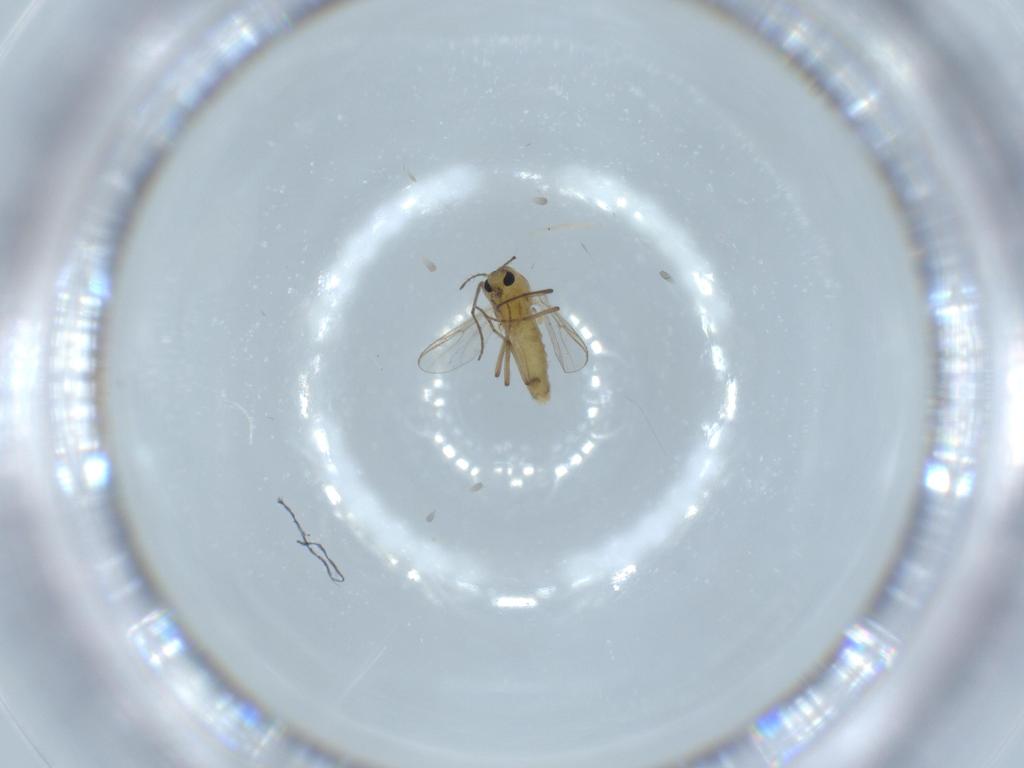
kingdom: Animalia
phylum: Arthropoda
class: Insecta
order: Diptera
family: Chironomidae
